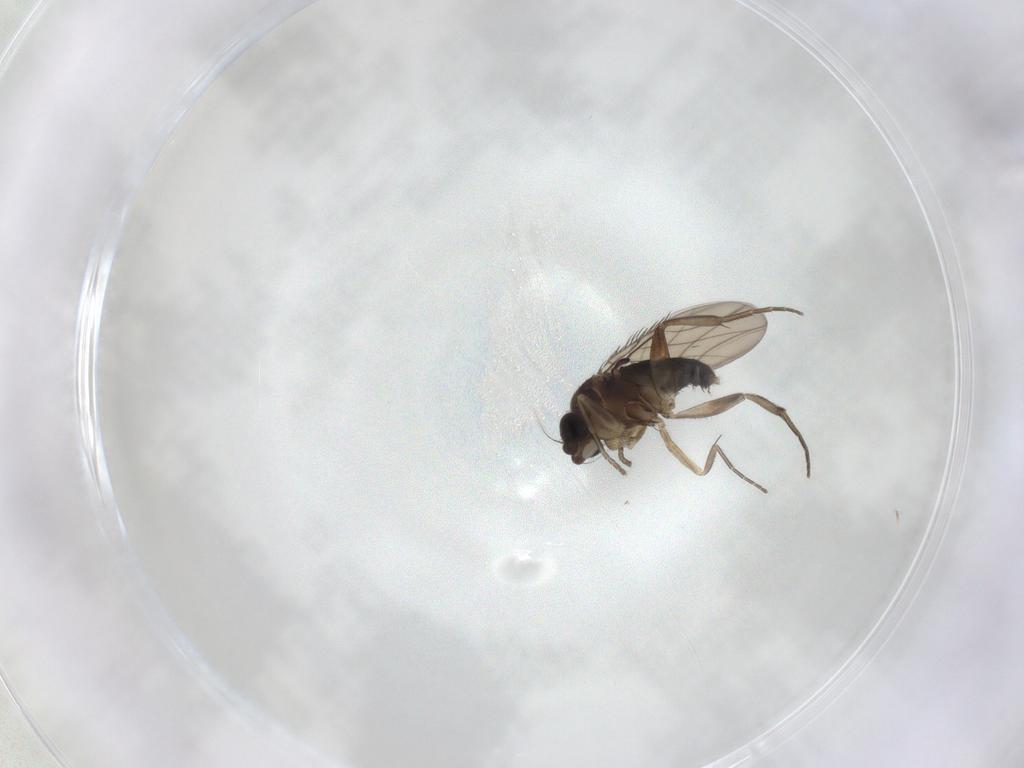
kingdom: Animalia
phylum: Arthropoda
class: Insecta
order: Diptera
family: Phoridae
